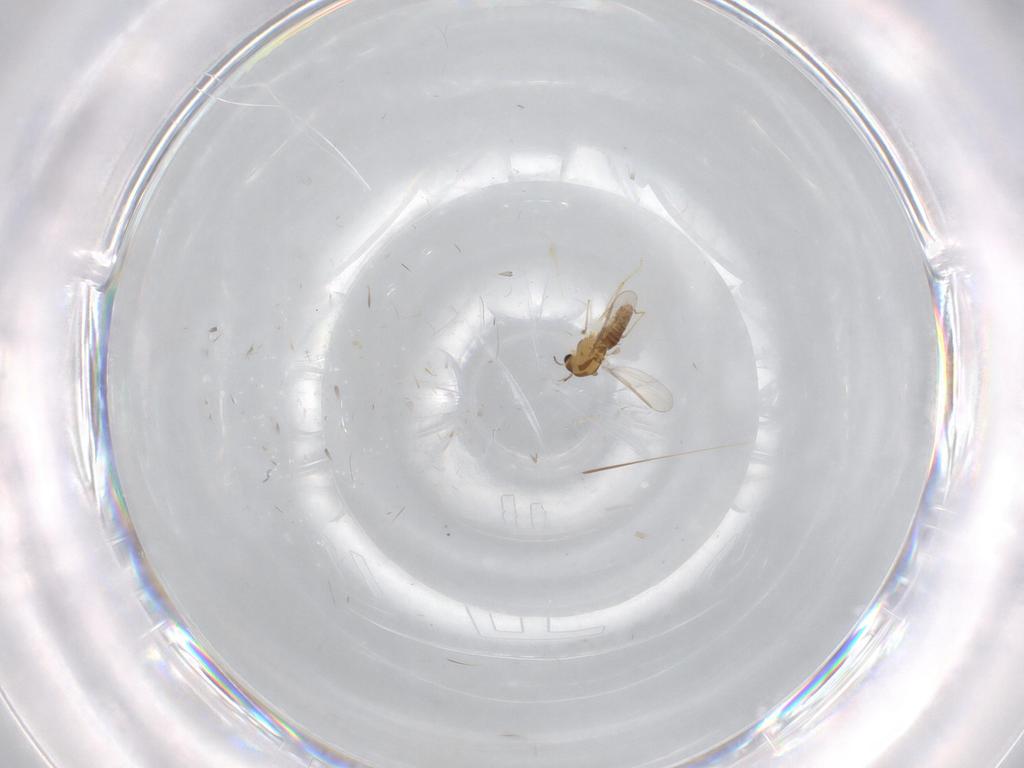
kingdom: Animalia
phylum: Arthropoda
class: Insecta
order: Diptera
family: Chironomidae
